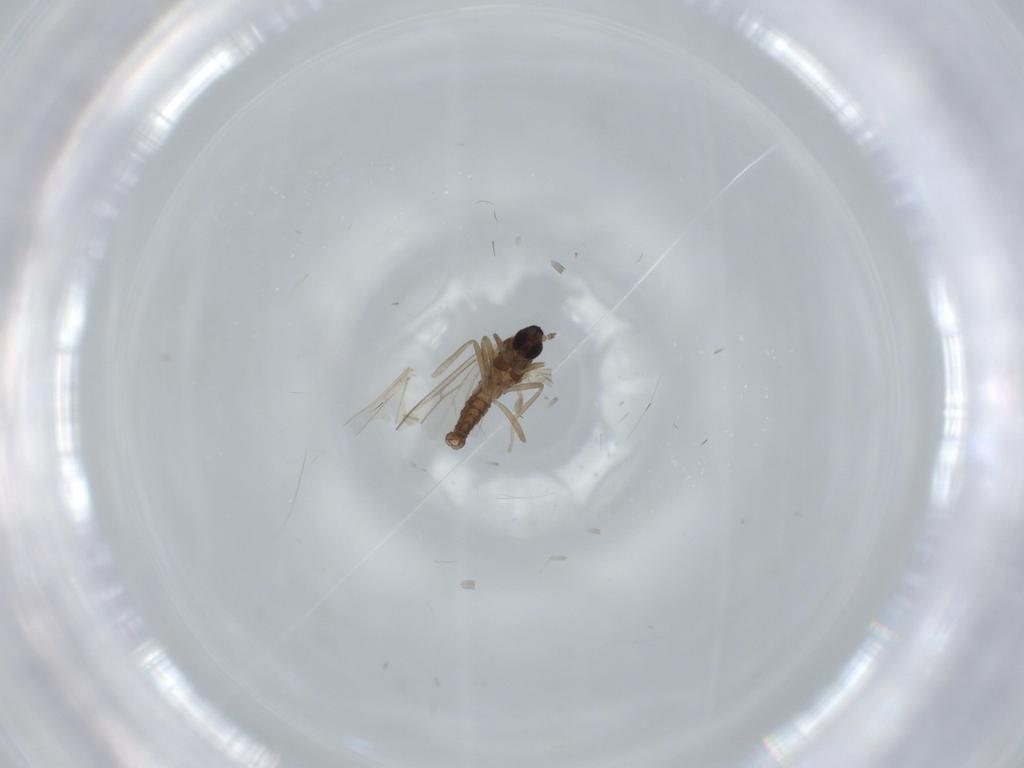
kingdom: Animalia
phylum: Arthropoda
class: Insecta
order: Diptera
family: Cecidomyiidae
